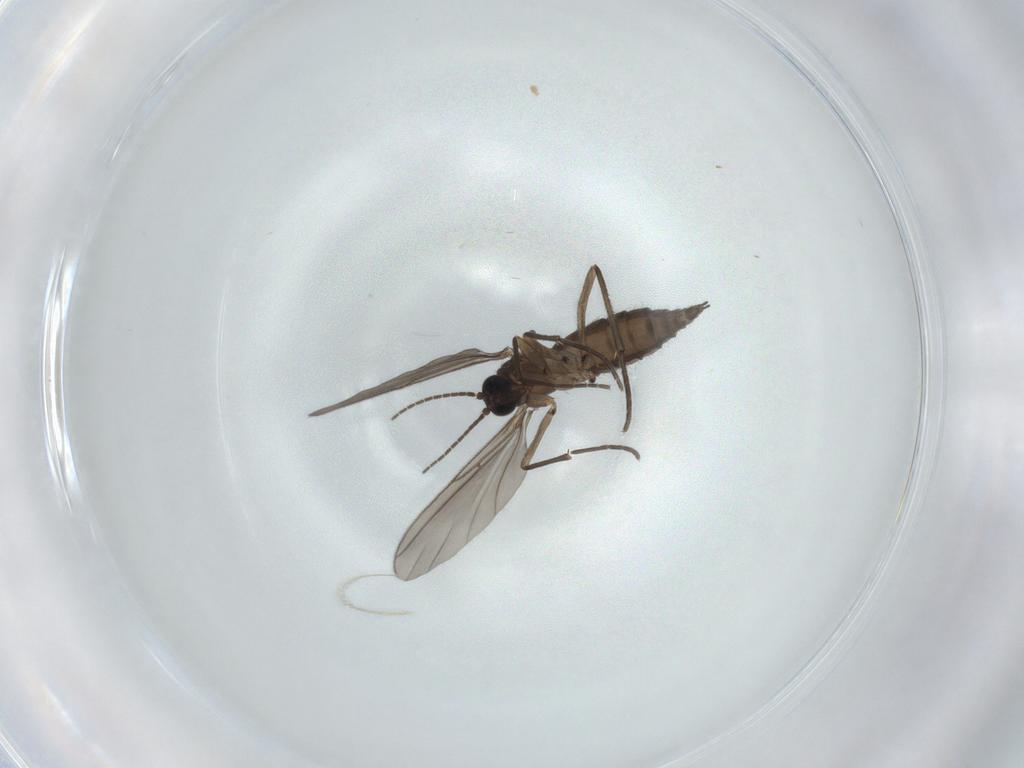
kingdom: Animalia
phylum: Arthropoda
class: Insecta
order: Diptera
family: Sciaridae
